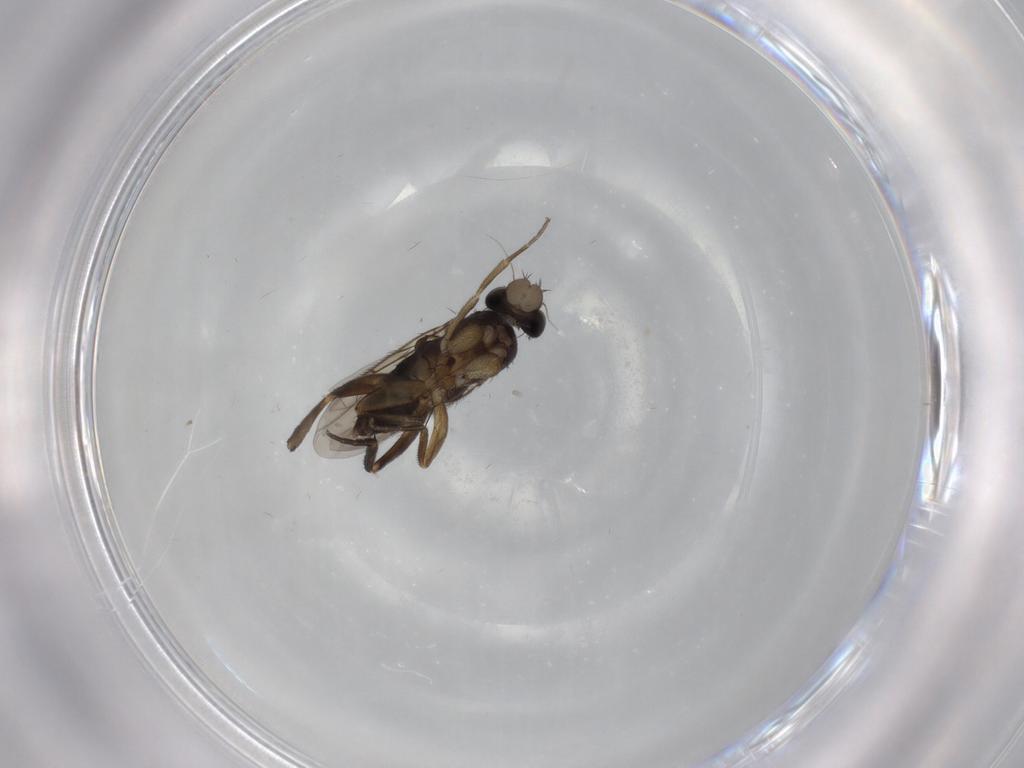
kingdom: Animalia
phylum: Arthropoda
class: Insecta
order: Diptera
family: Phoridae
